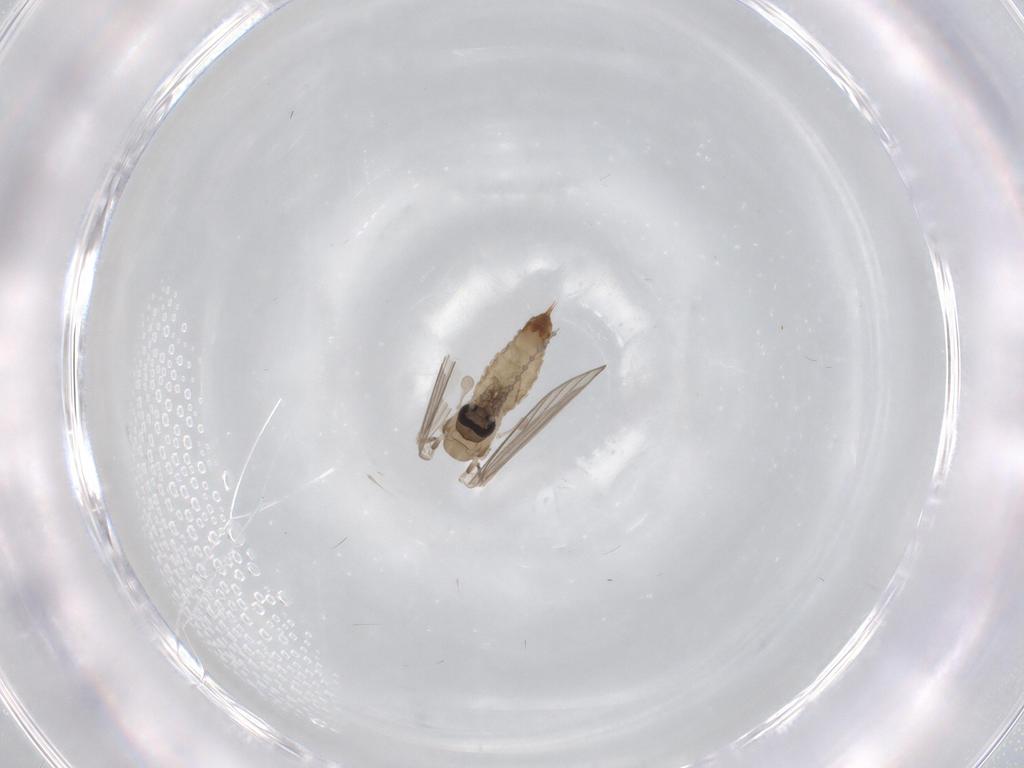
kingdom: Animalia
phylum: Arthropoda
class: Insecta
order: Diptera
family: Psychodidae
